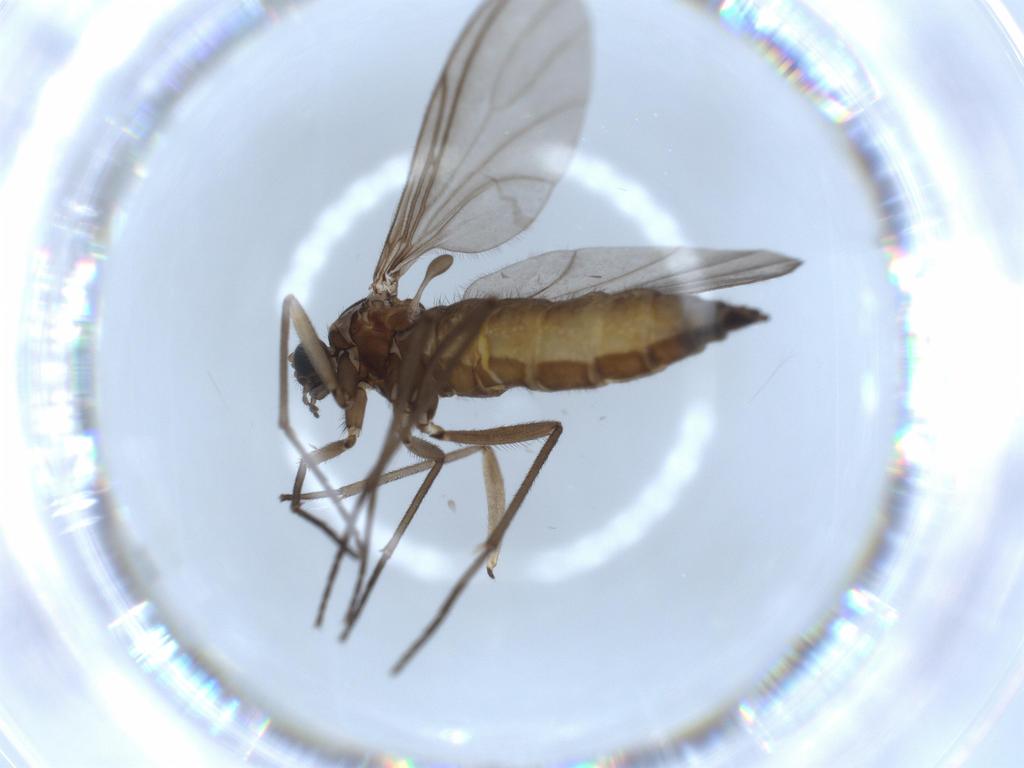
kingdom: Animalia
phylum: Arthropoda
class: Insecta
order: Diptera
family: Sciaridae
